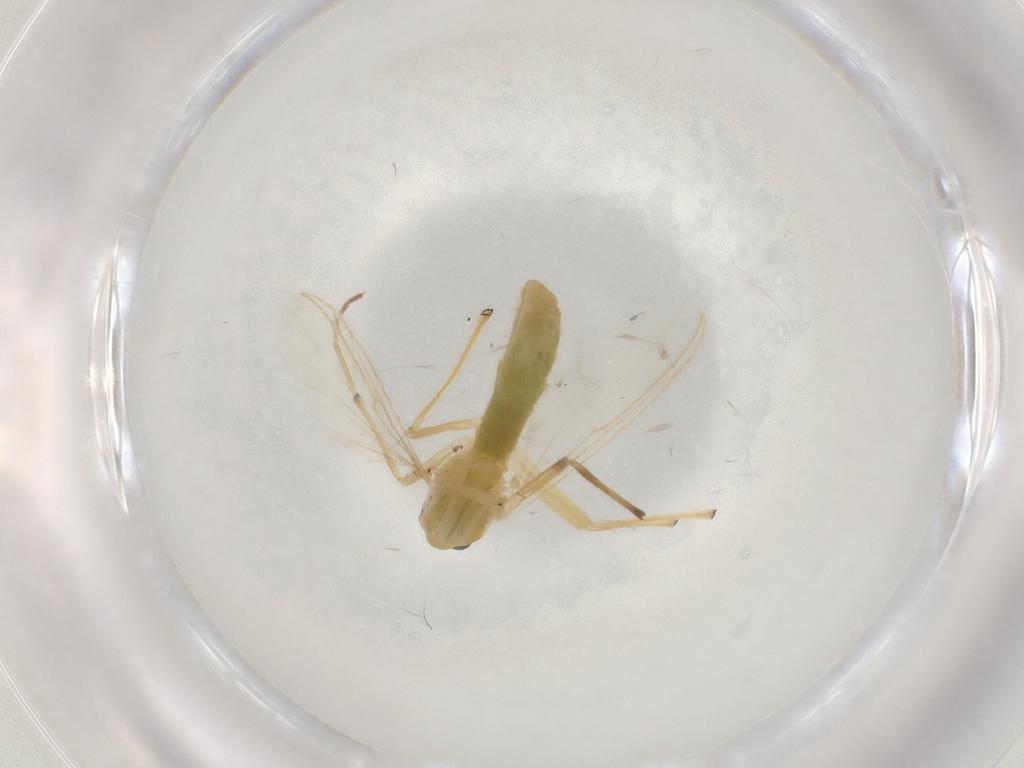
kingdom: Animalia
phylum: Arthropoda
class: Insecta
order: Diptera
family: Chironomidae
